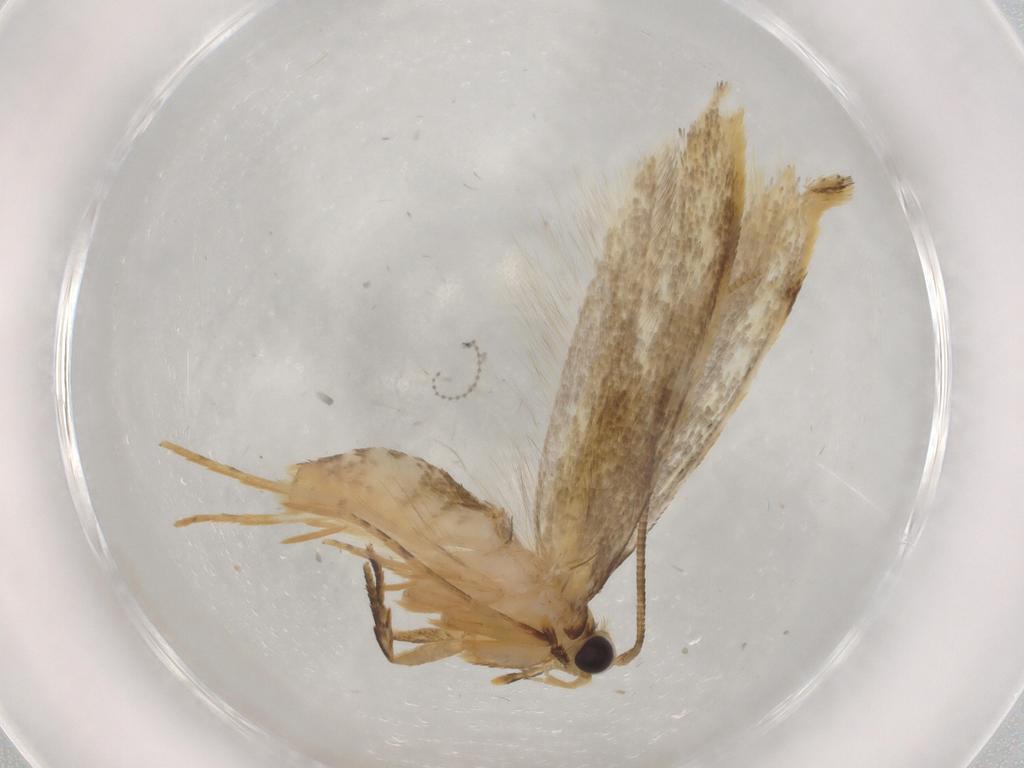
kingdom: Animalia
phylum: Arthropoda
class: Insecta
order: Lepidoptera
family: Tineidae
